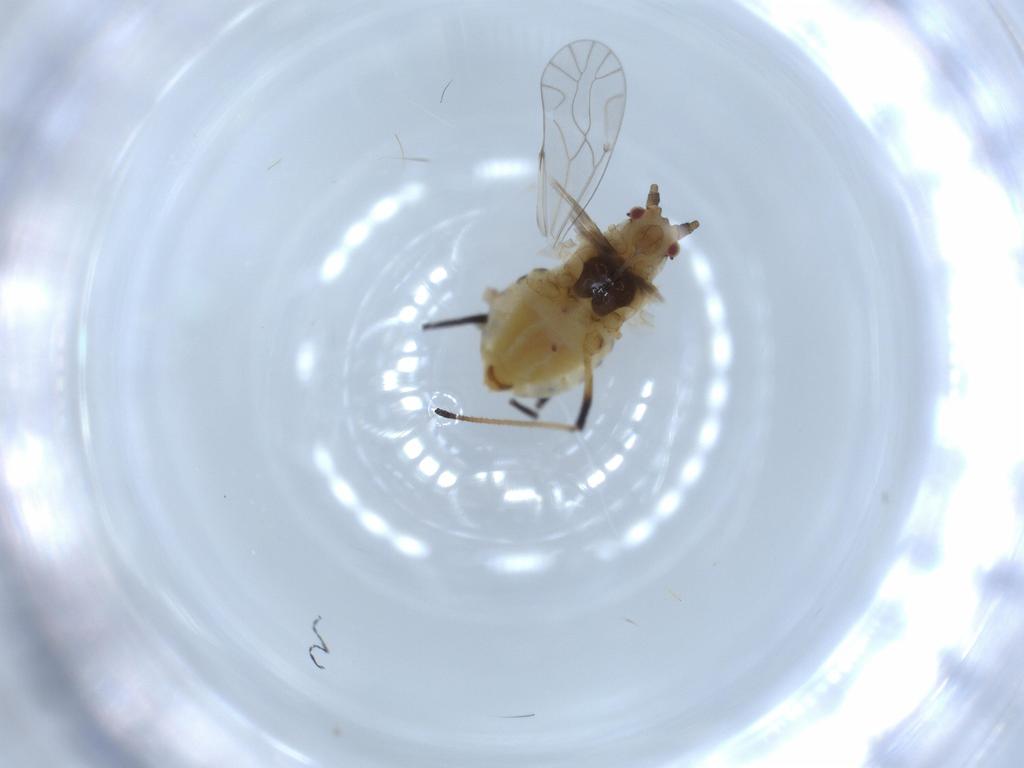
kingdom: Animalia
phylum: Arthropoda
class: Insecta
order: Hemiptera
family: Aphididae
